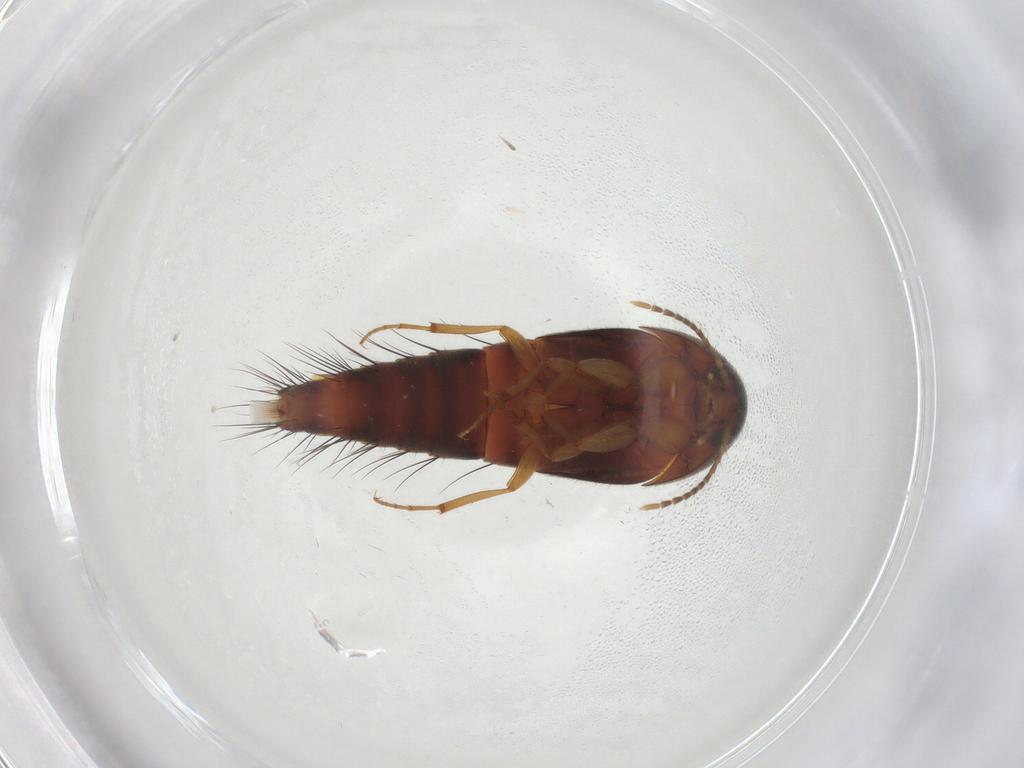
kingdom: Animalia
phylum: Arthropoda
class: Insecta
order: Coleoptera
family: Staphylinidae
